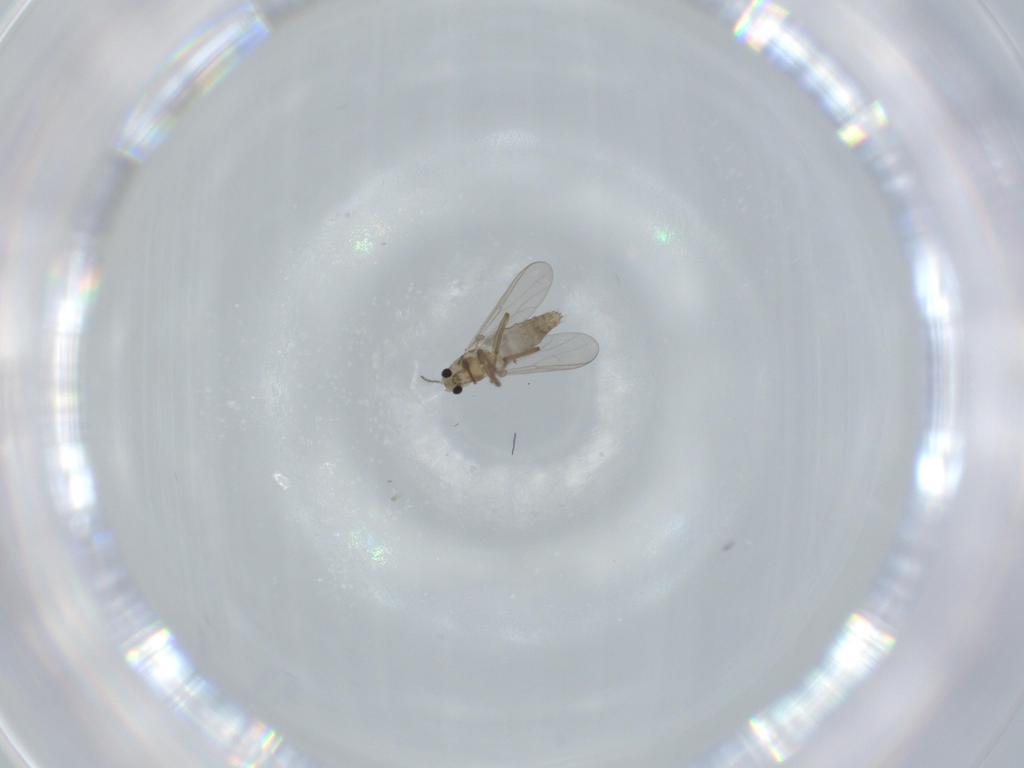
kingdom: Animalia
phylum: Arthropoda
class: Insecta
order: Diptera
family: Chironomidae
